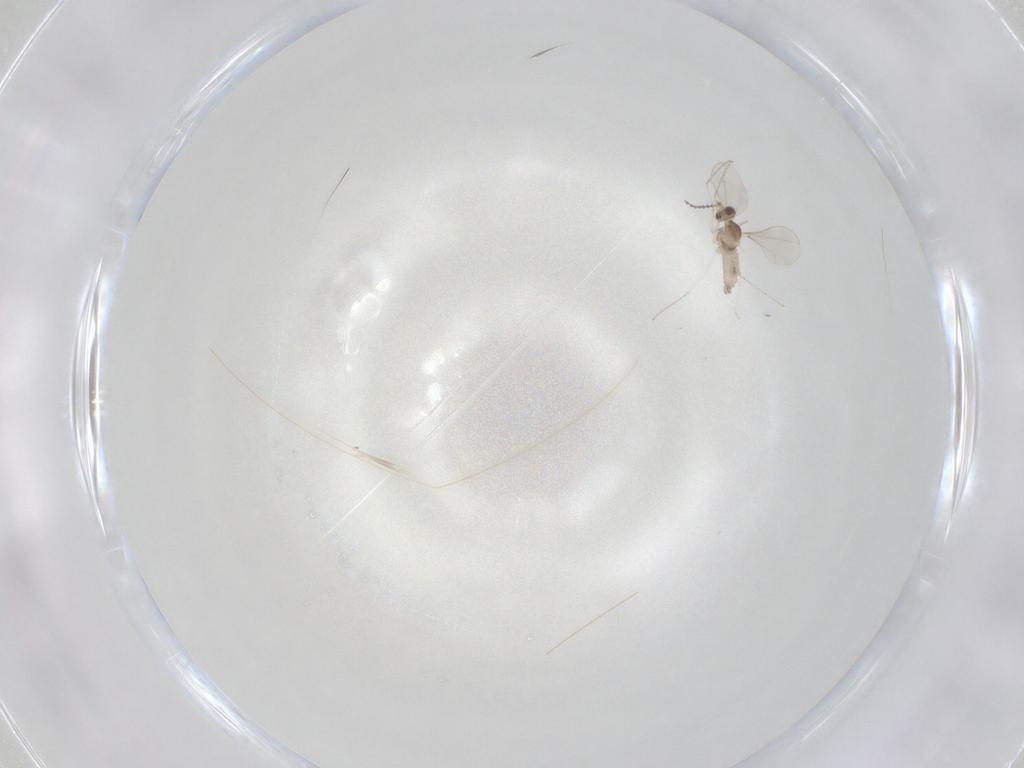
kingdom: Animalia
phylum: Arthropoda
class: Insecta
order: Diptera
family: Cecidomyiidae
